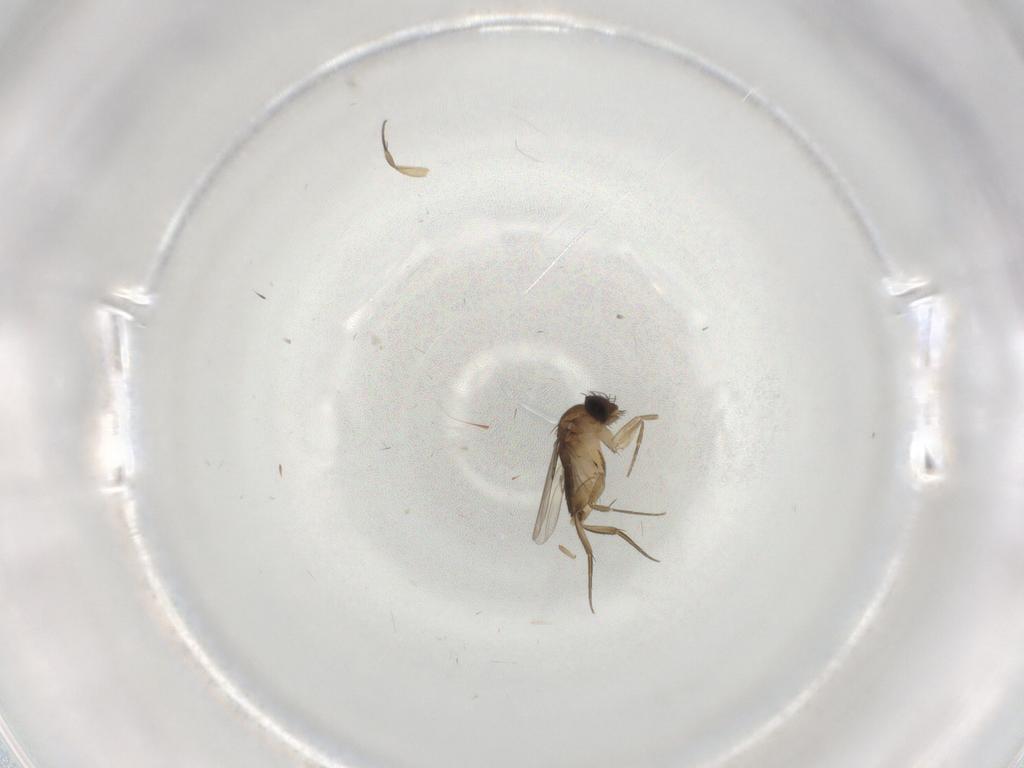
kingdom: Animalia
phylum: Arthropoda
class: Insecta
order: Diptera
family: Phoridae
